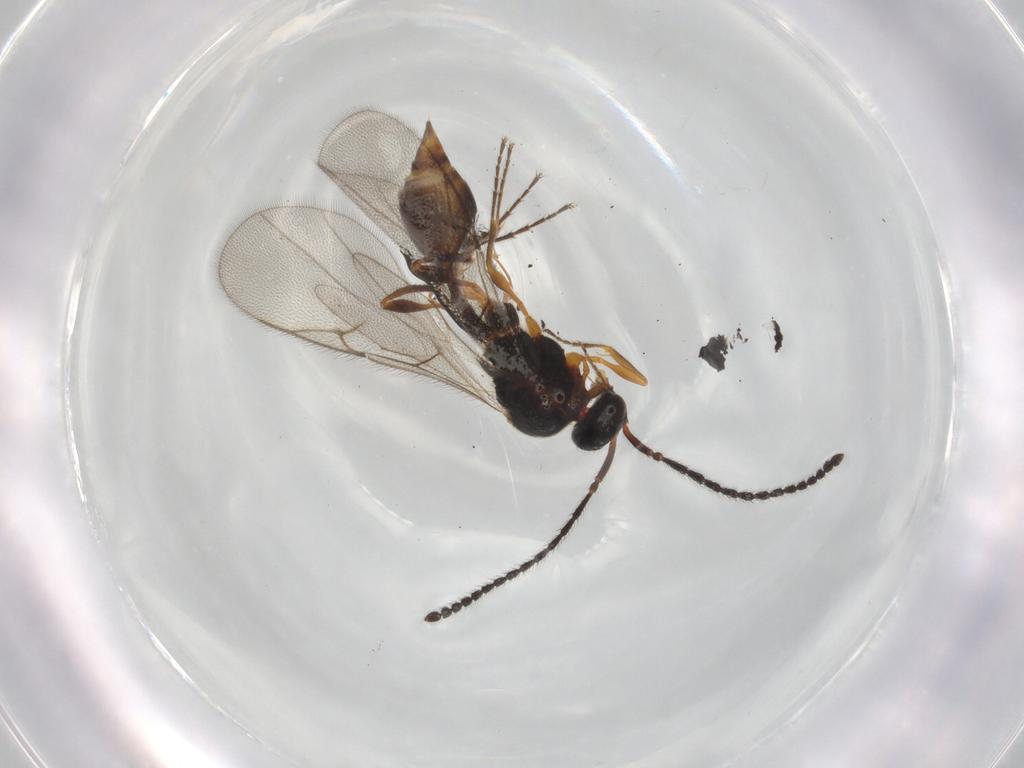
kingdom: Animalia
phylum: Arthropoda
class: Insecta
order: Hymenoptera
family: Diapriidae
